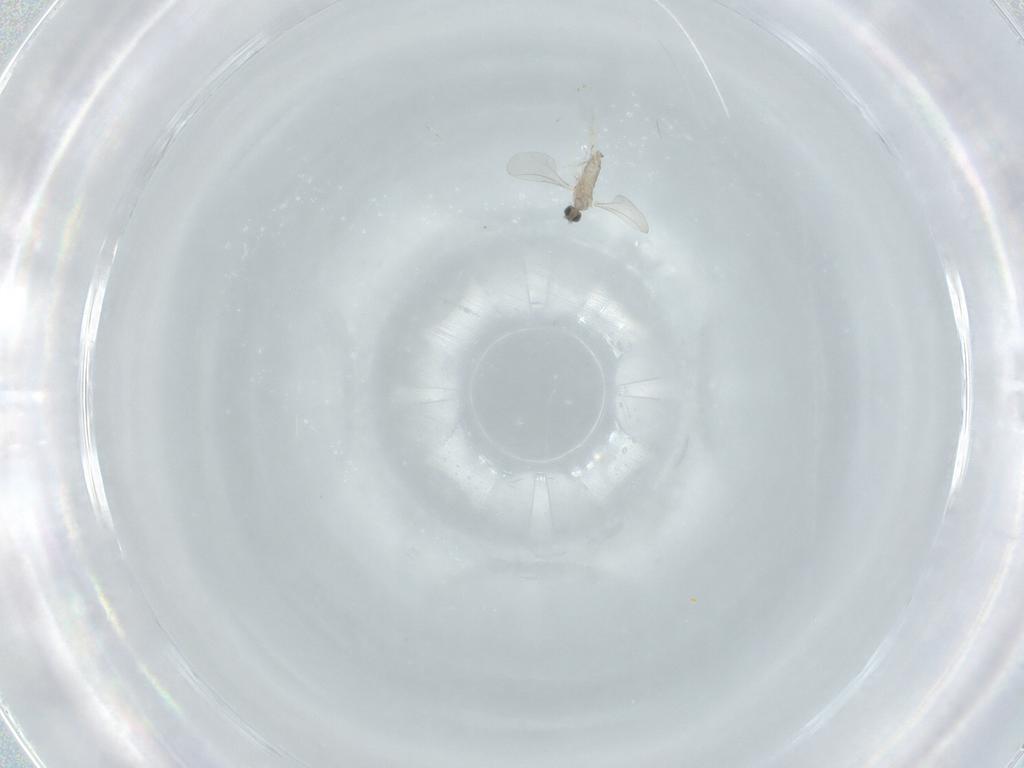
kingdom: Animalia
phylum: Arthropoda
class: Insecta
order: Diptera
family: Cecidomyiidae
